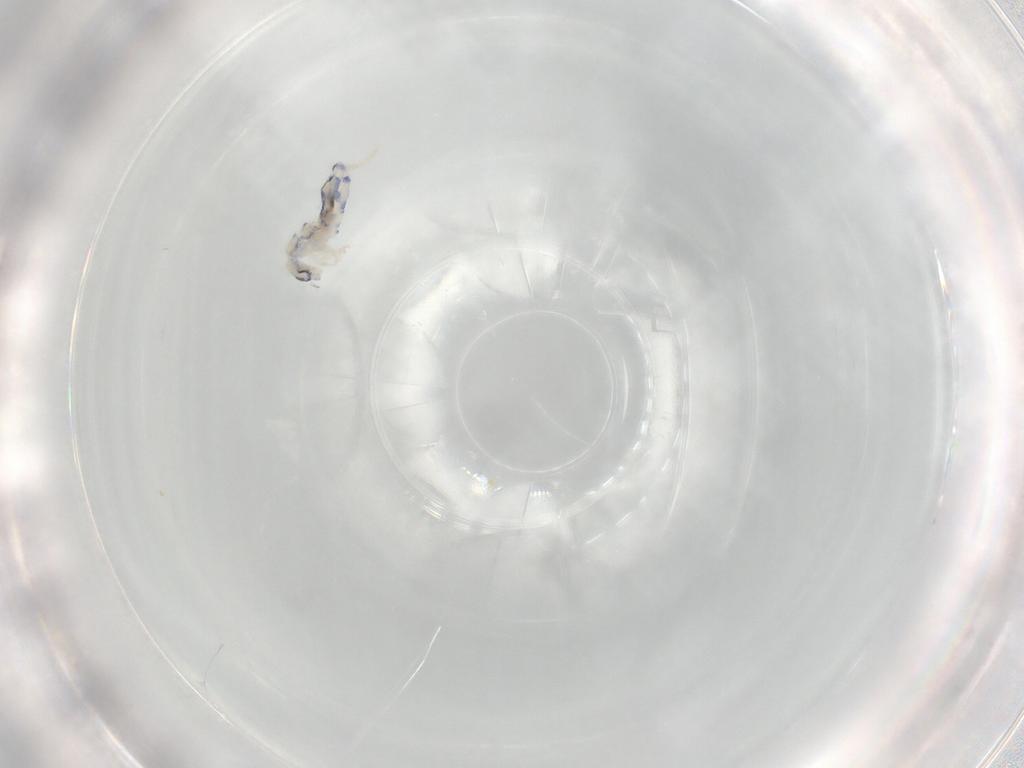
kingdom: Animalia
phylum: Arthropoda
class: Collembola
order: Entomobryomorpha
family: Entomobryidae
